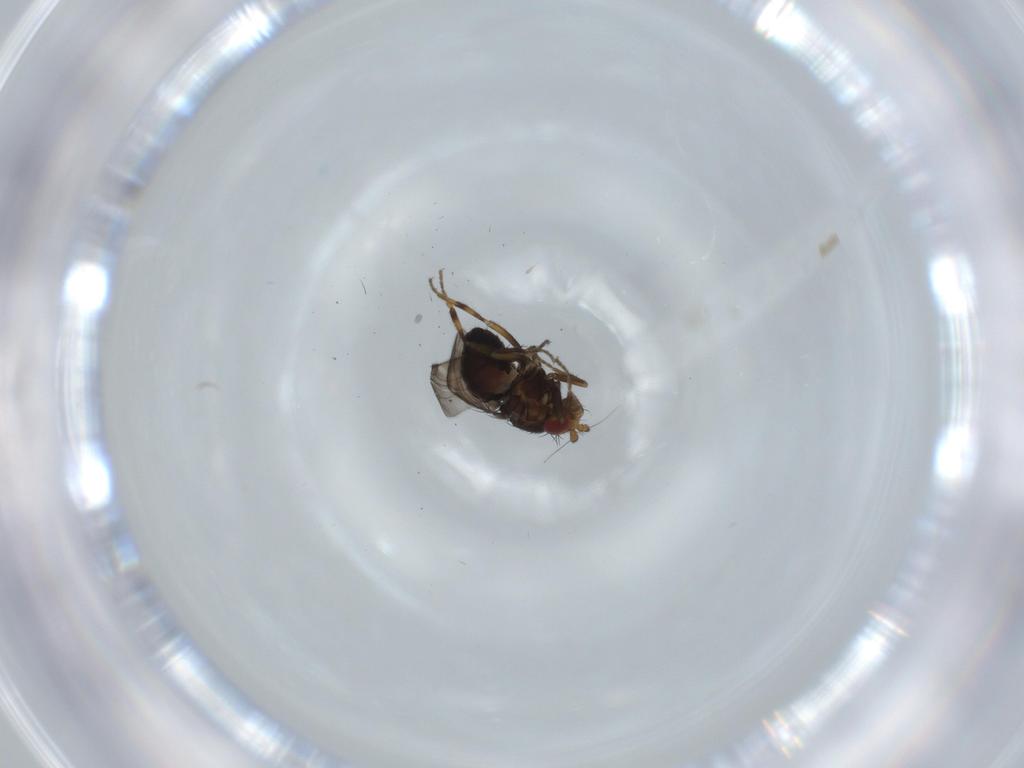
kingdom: Animalia
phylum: Arthropoda
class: Insecta
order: Diptera
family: Sphaeroceridae
